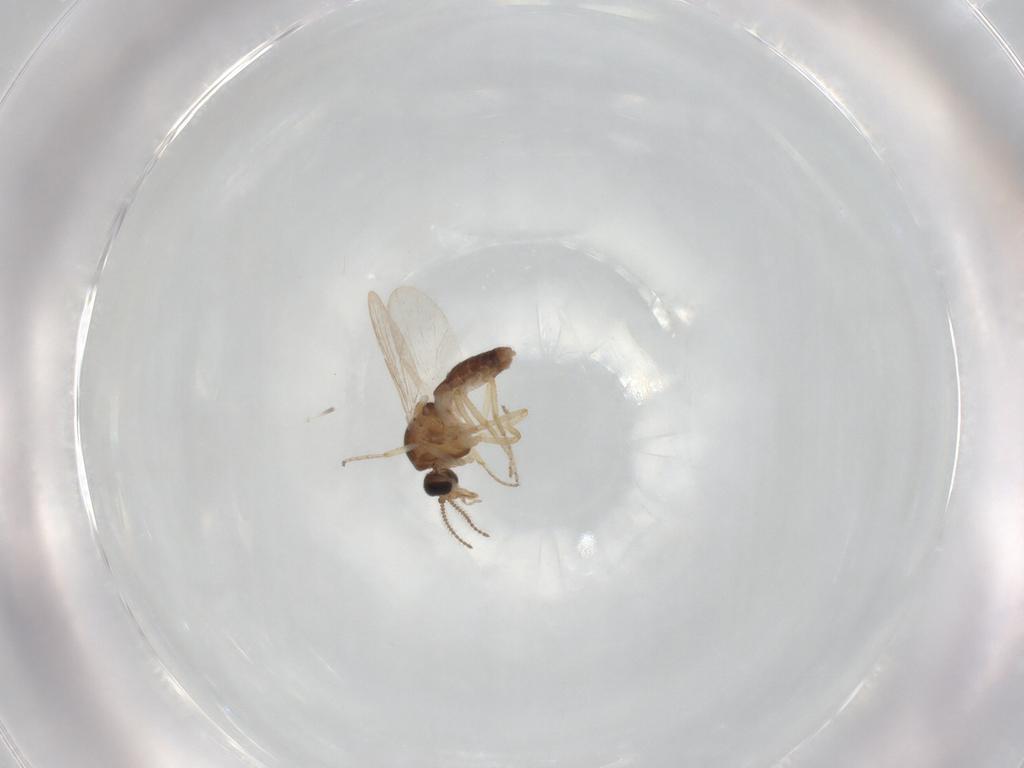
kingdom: Animalia
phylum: Arthropoda
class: Insecta
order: Diptera
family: Ceratopogonidae
